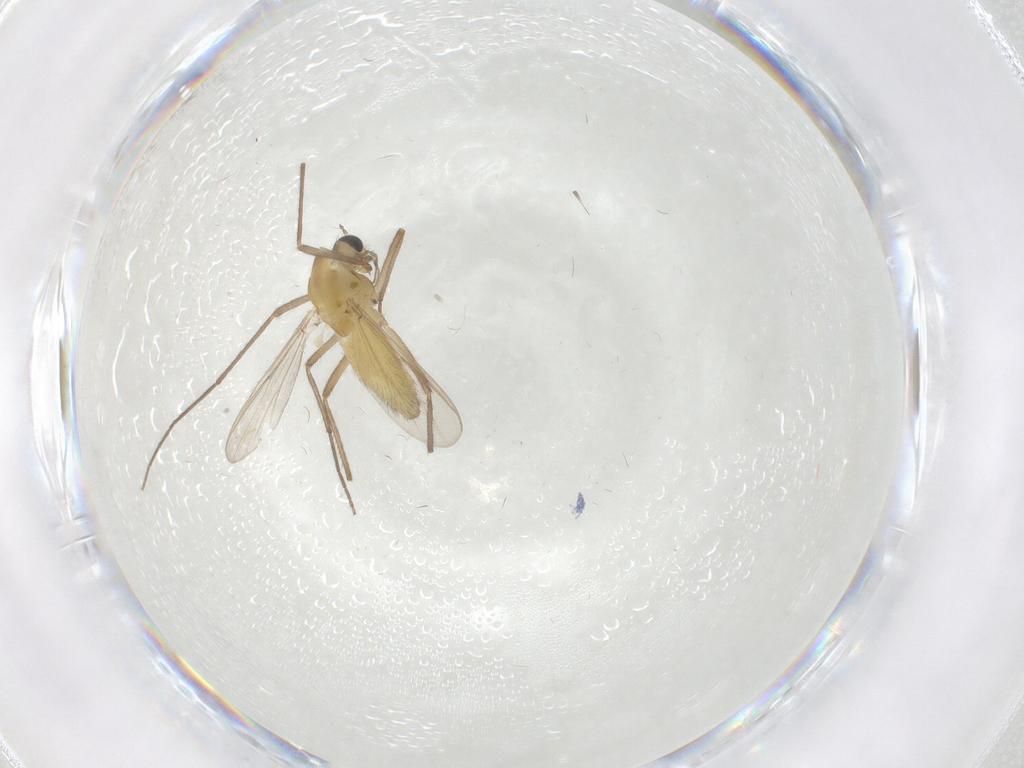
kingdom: Animalia
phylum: Arthropoda
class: Insecta
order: Diptera
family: Chironomidae
